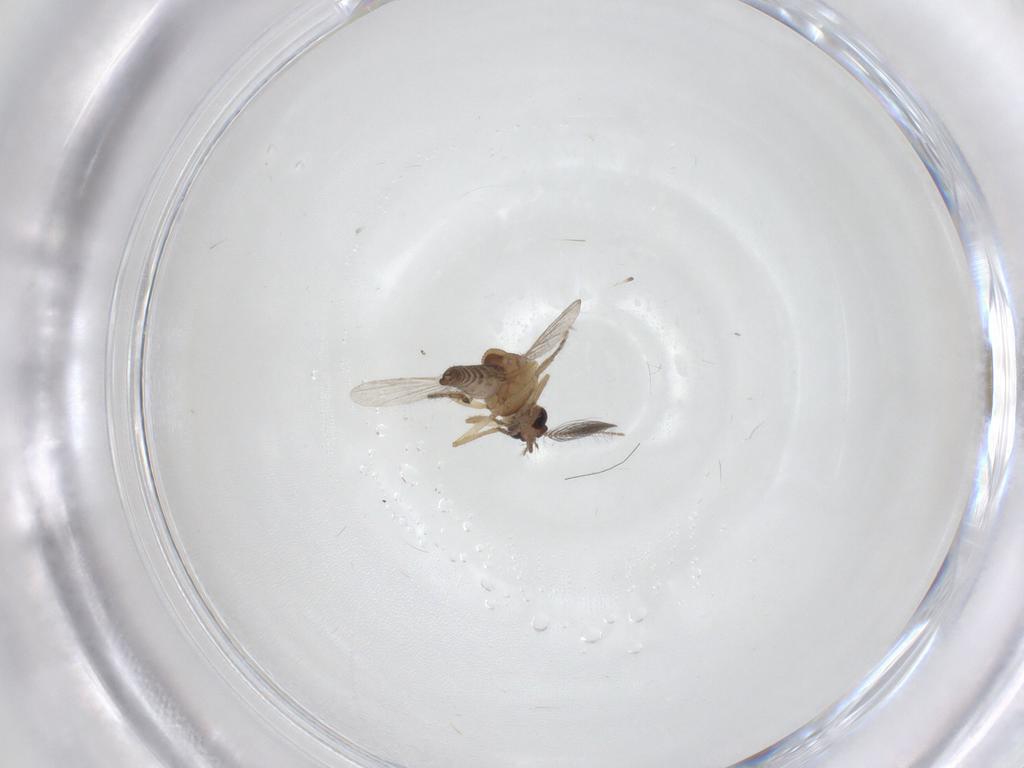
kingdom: Animalia
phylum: Arthropoda
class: Insecta
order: Diptera
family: Ceratopogonidae
